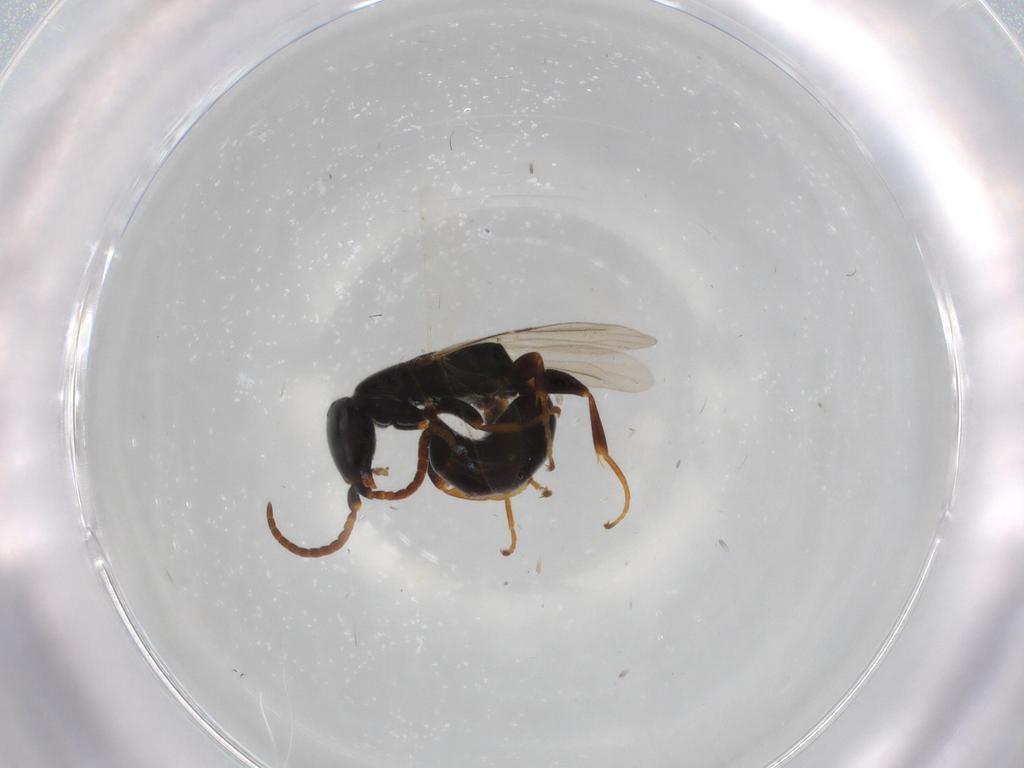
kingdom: Animalia
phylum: Arthropoda
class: Insecta
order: Hymenoptera
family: Bethylidae
